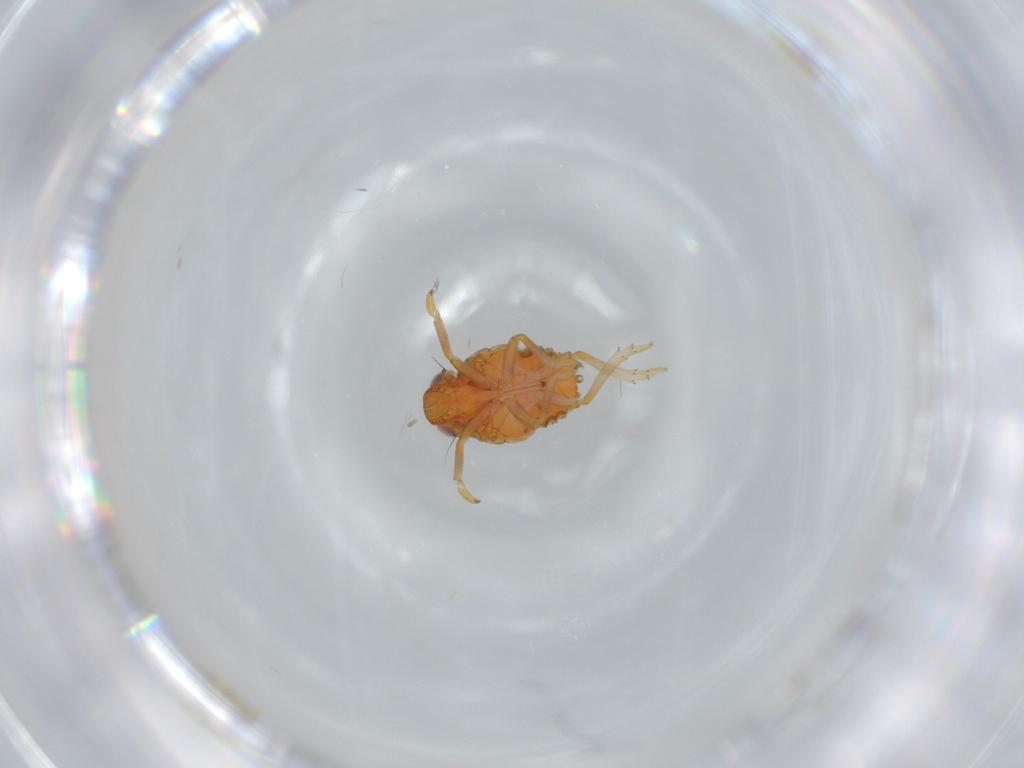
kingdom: Animalia
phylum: Arthropoda
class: Insecta
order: Hemiptera
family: Issidae
